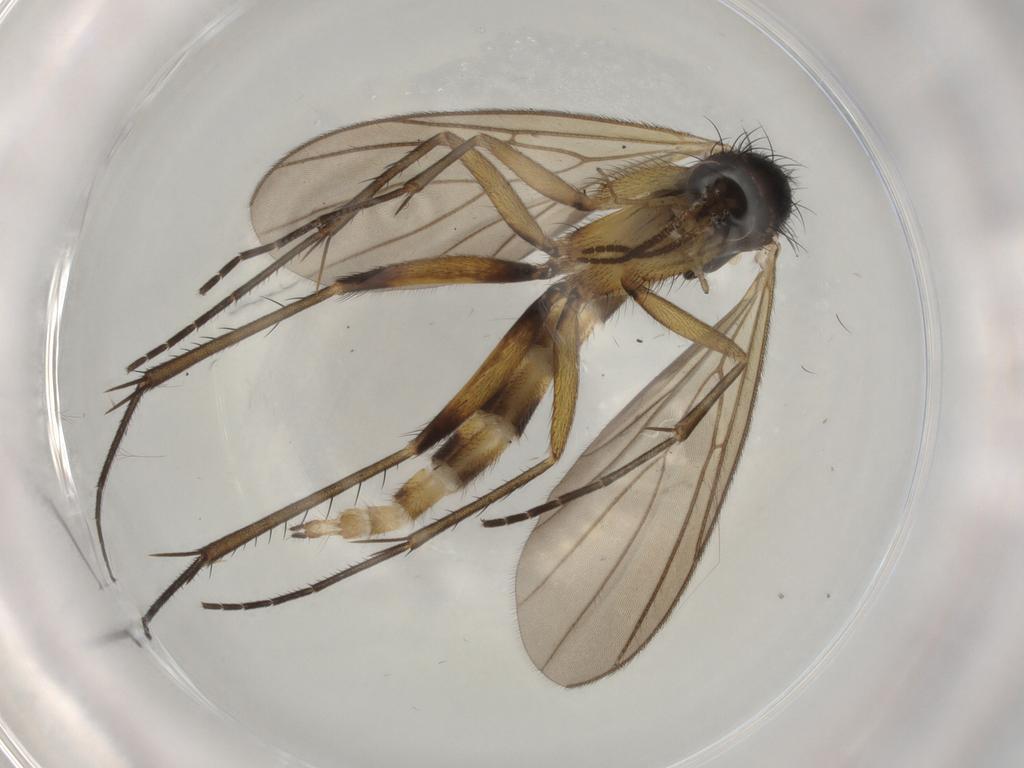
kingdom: Animalia
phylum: Arthropoda
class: Insecta
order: Diptera
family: Mycetophilidae
